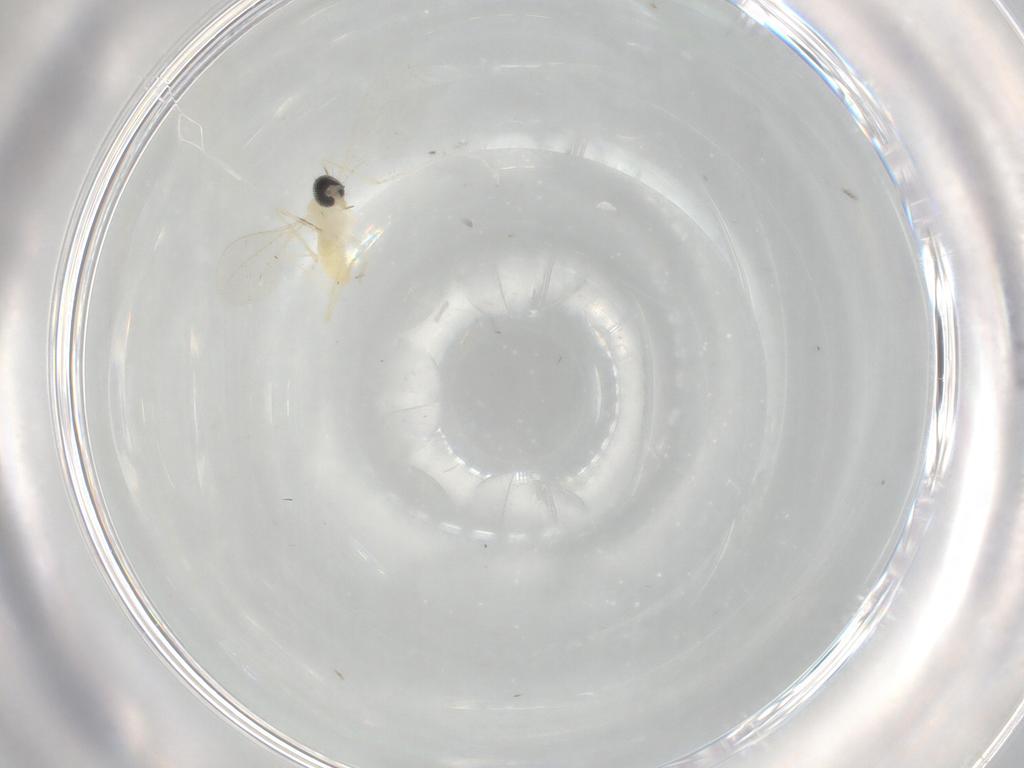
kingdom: Animalia
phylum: Arthropoda
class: Insecta
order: Diptera
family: Cecidomyiidae
